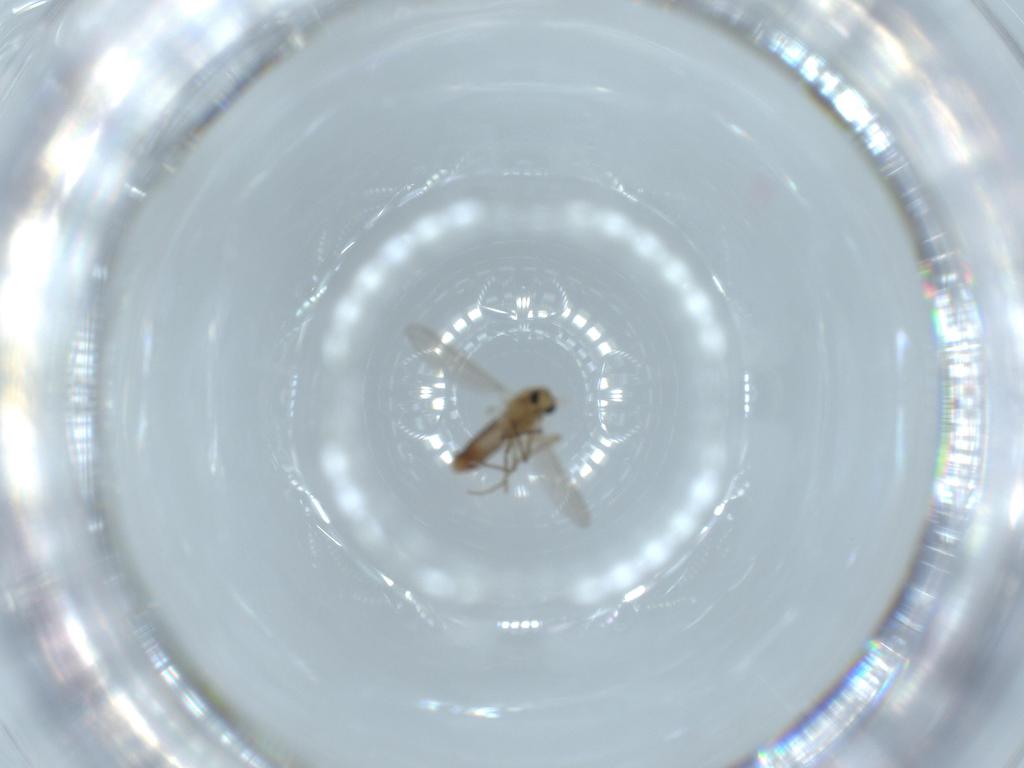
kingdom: Animalia
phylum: Arthropoda
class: Insecta
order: Diptera
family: Chironomidae
